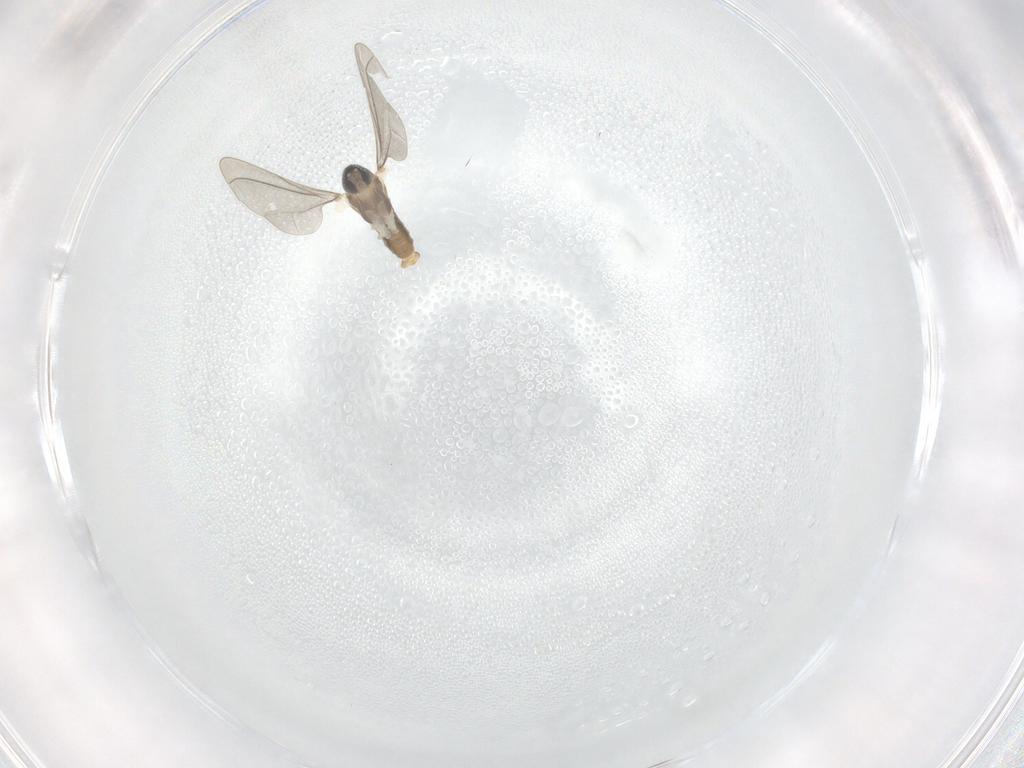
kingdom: Animalia
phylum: Arthropoda
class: Insecta
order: Diptera
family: Cecidomyiidae
